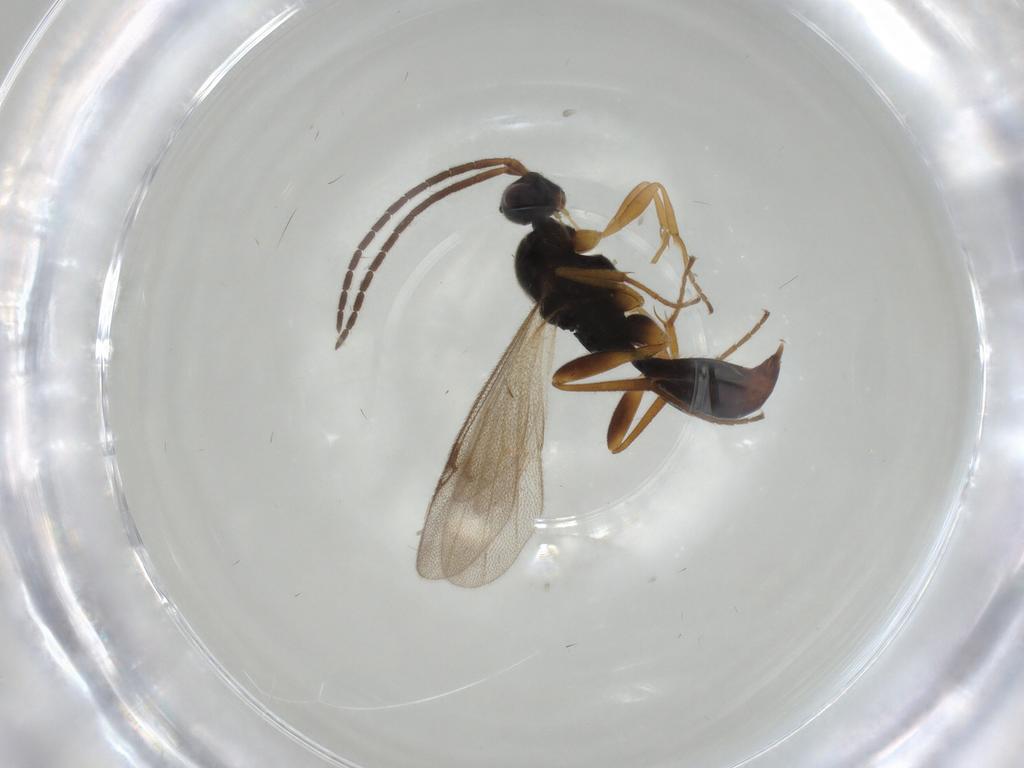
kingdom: Animalia
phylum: Arthropoda
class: Insecta
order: Hymenoptera
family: Proctotrupidae
